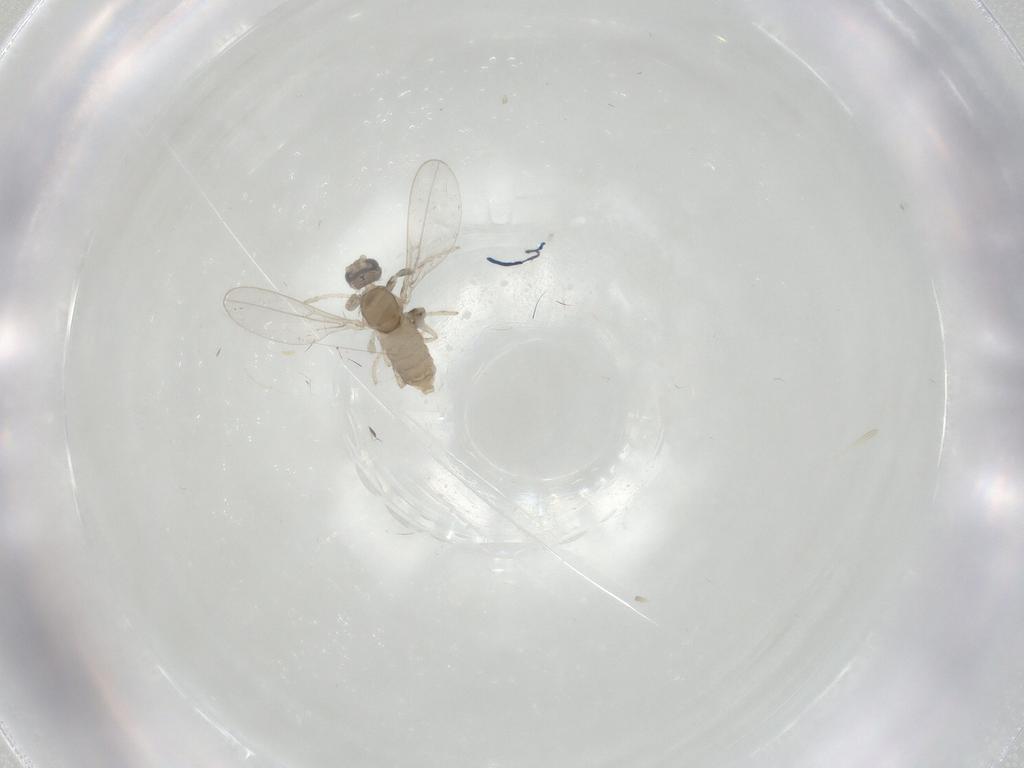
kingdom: Animalia
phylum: Arthropoda
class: Insecta
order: Diptera
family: Cecidomyiidae
